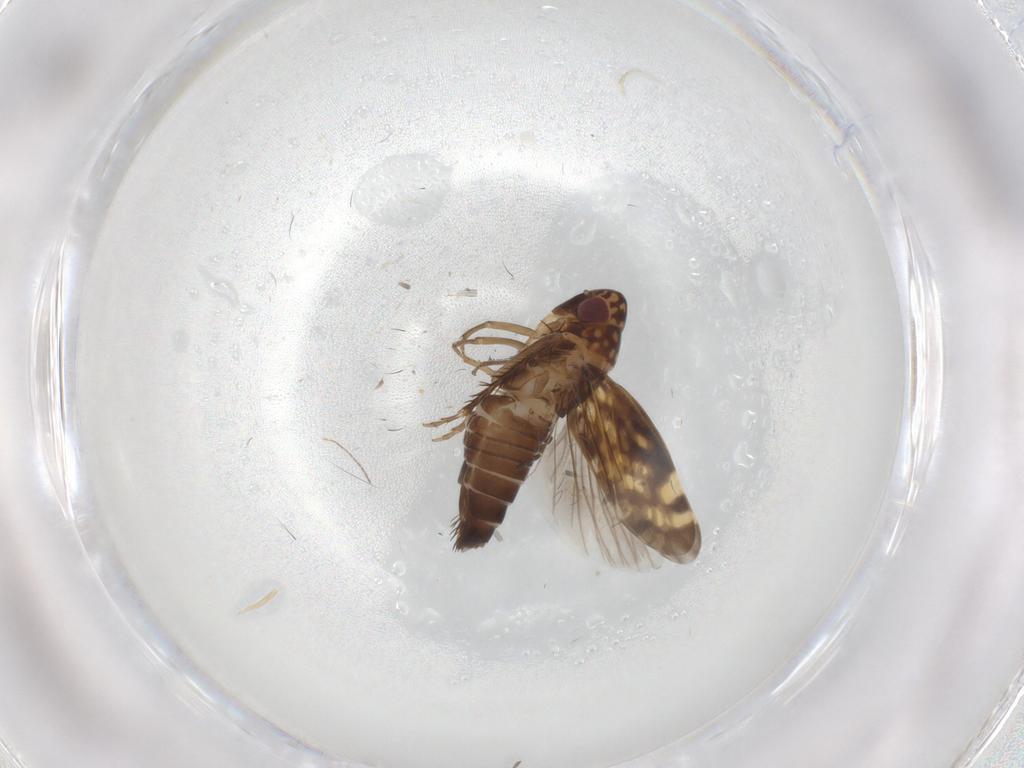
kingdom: Animalia
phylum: Arthropoda
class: Insecta
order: Hemiptera
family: Cicadellidae
